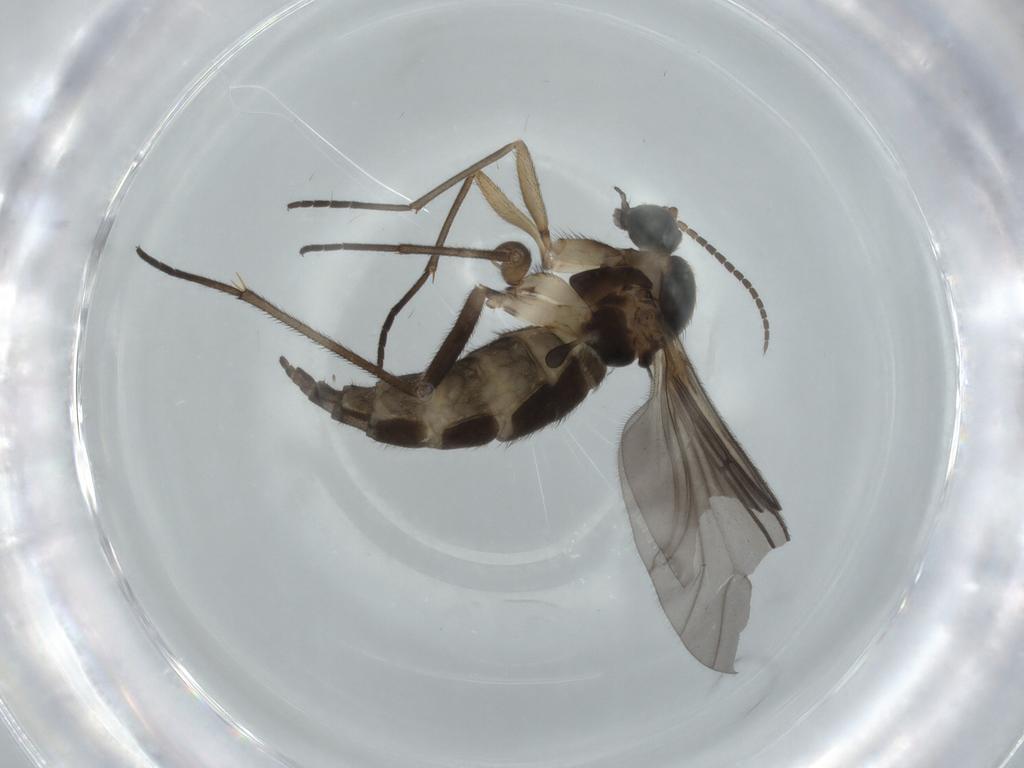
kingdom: Animalia
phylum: Arthropoda
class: Insecta
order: Diptera
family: Sciaridae
